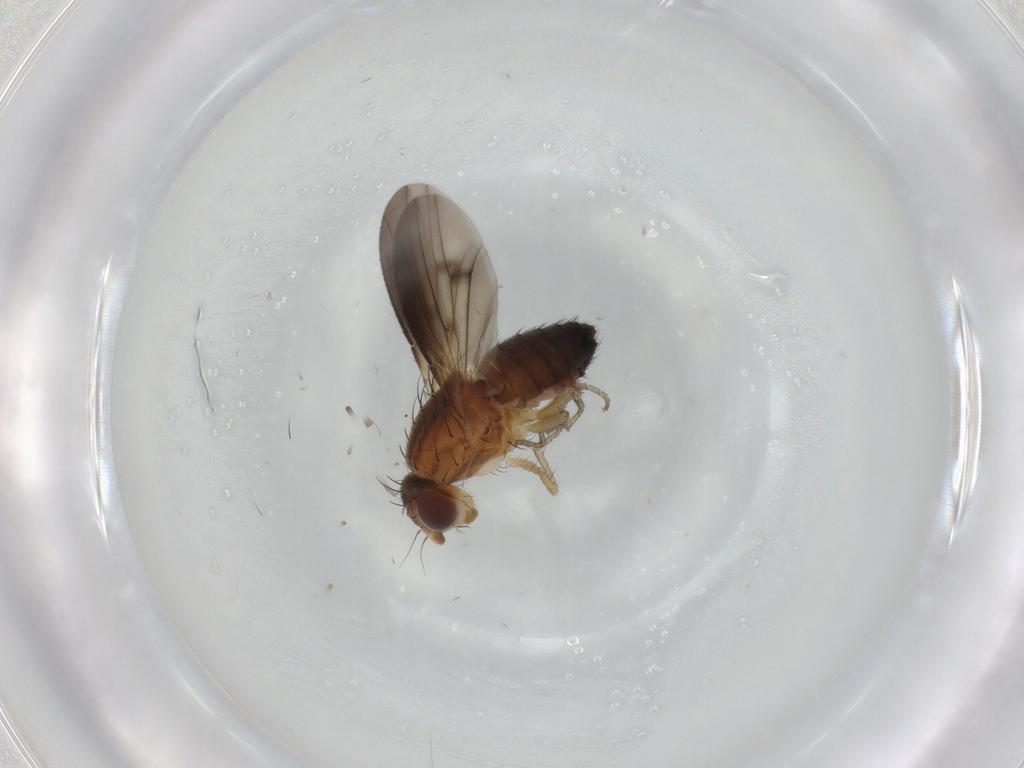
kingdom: Animalia
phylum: Arthropoda
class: Insecta
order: Diptera
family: Heleomyzidae
